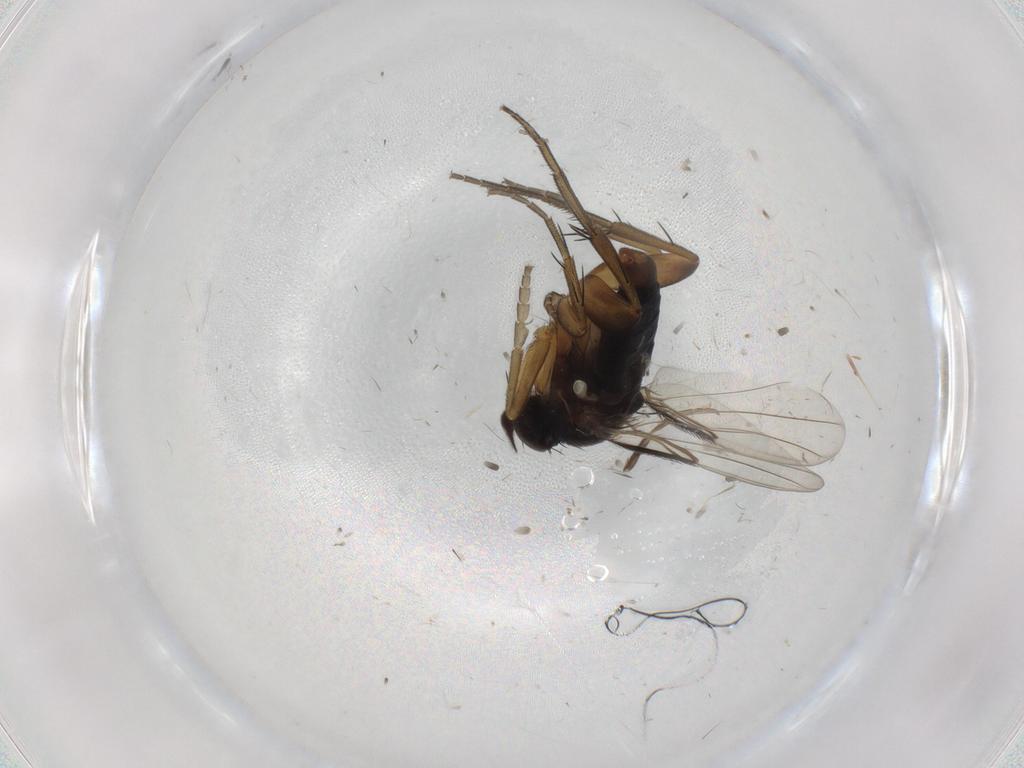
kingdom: Animalia
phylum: Arthropoda
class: Insecta
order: Diptera
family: Phoridae
